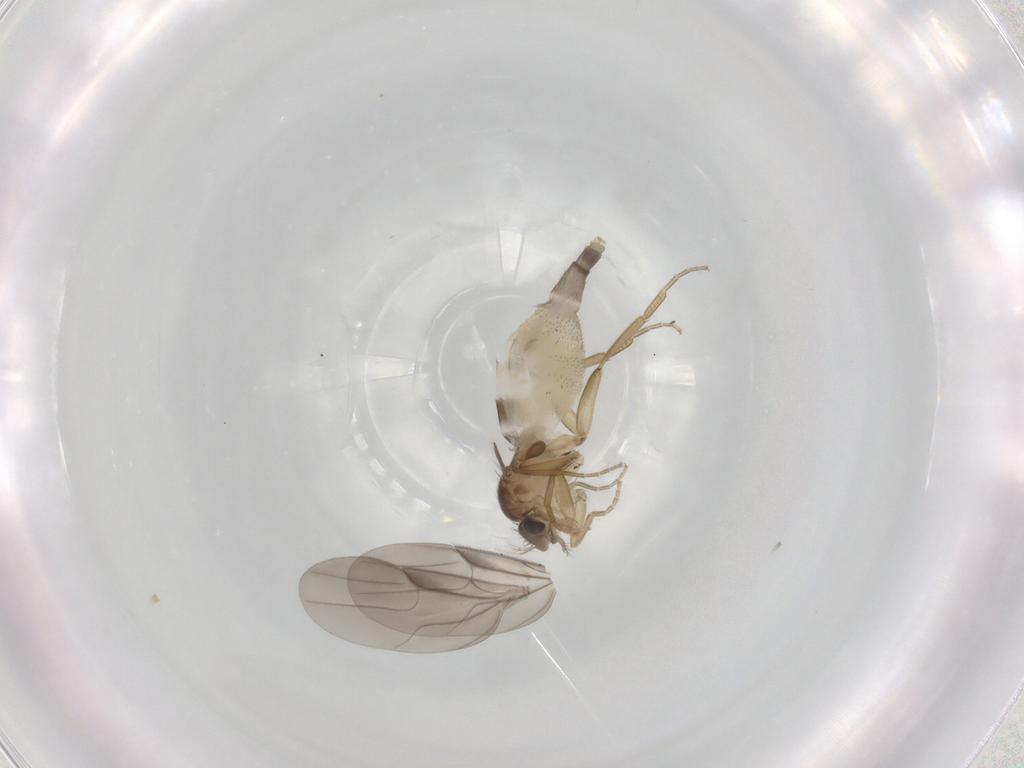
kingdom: Animalia
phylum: Arthropoda
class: Insecta
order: Diptera
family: Phoridae
